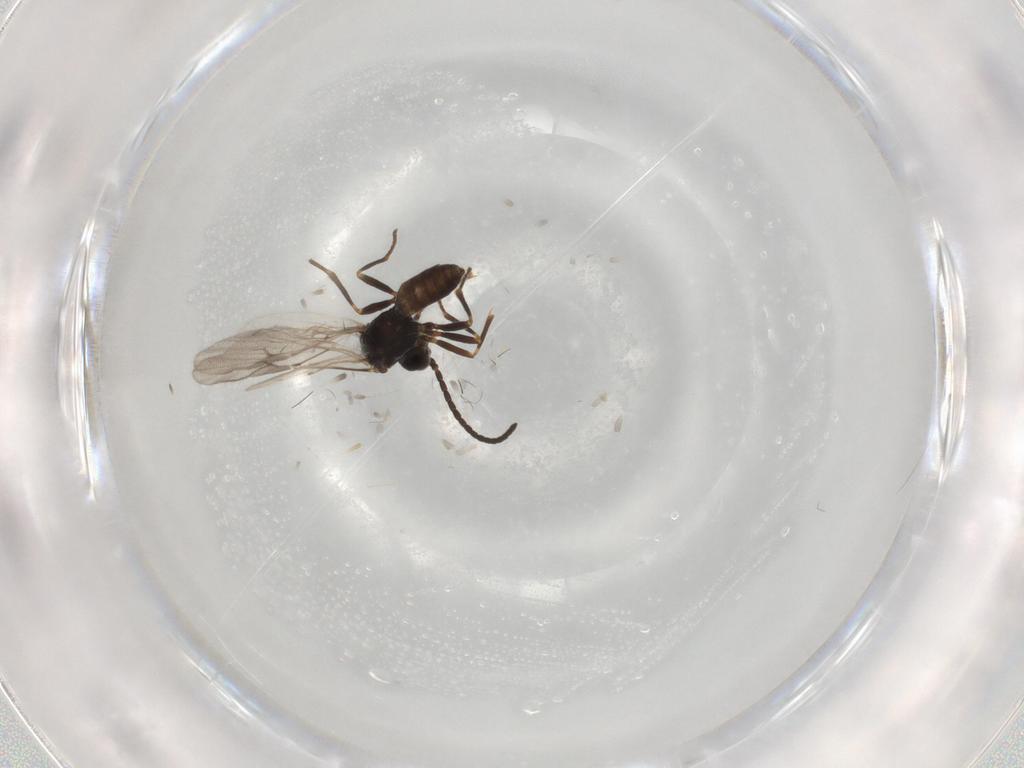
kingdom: Animalia
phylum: Arthropoda
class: Insecta
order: Hymenoptera
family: Braconidae
